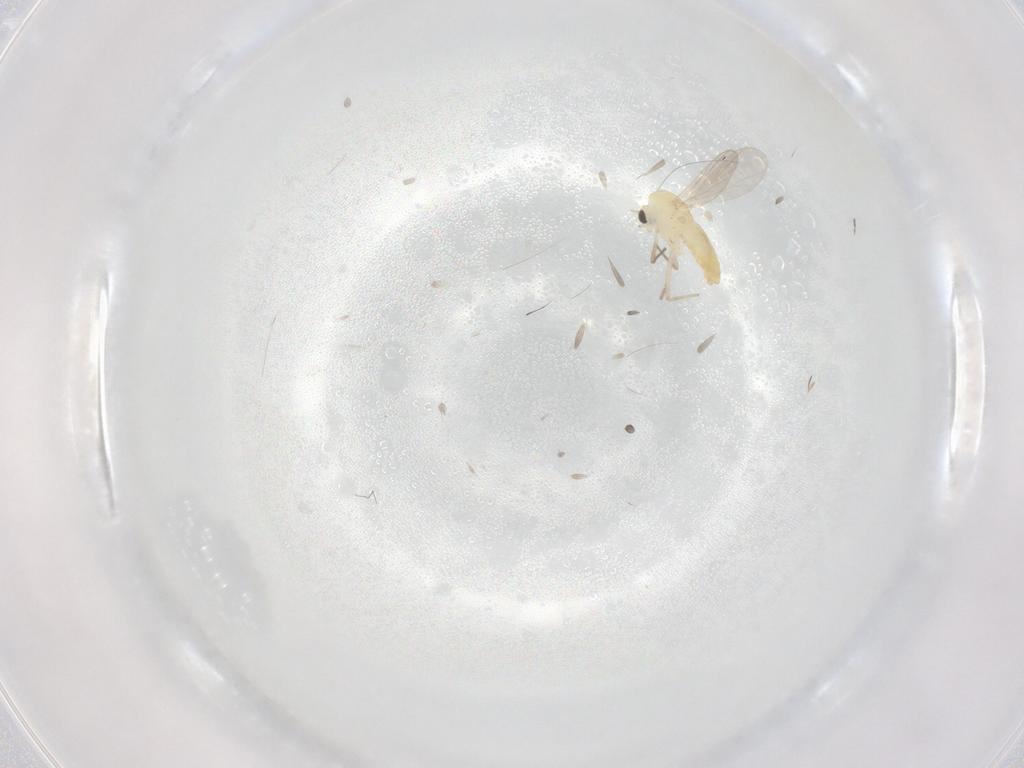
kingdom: Animalia
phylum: Arthropoda
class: Insecta
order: Diptera
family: Chironomidae
